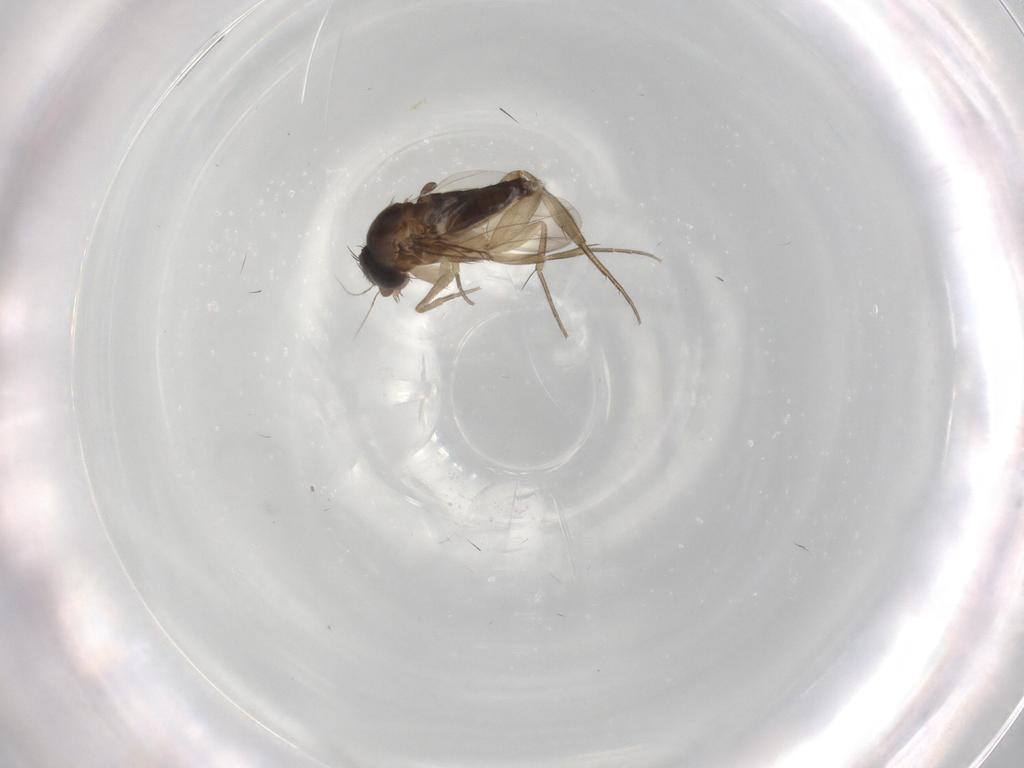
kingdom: Animalia
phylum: Arthropoda
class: Insecta
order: Diptera
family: Phoridae
